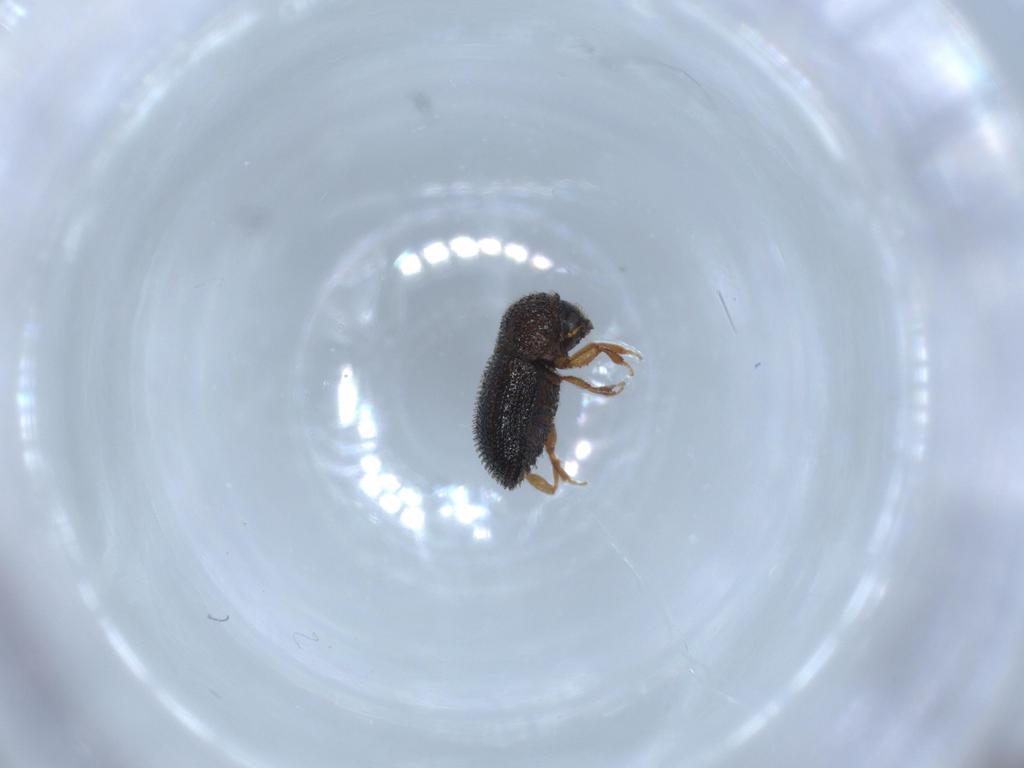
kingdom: Animalia
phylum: Arthropoda
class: Insecta
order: Coleoptera
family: Curculionidae
